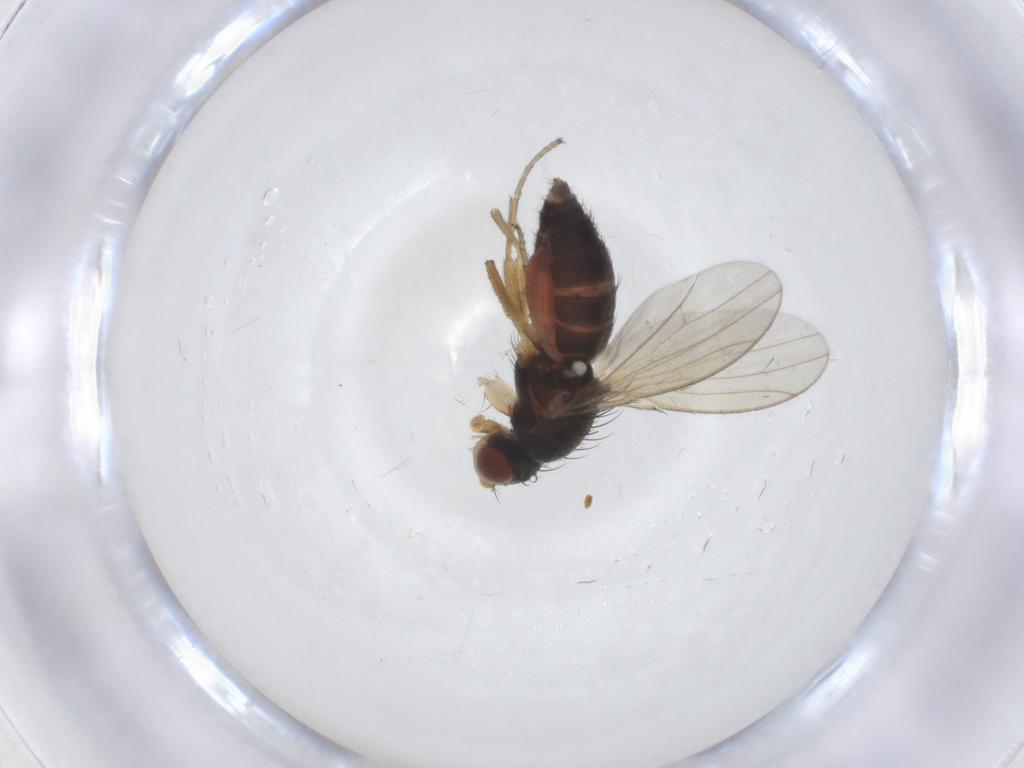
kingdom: Animalia
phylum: Arthropoda
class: Insecta
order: Diptera
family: Heleomyzidae
